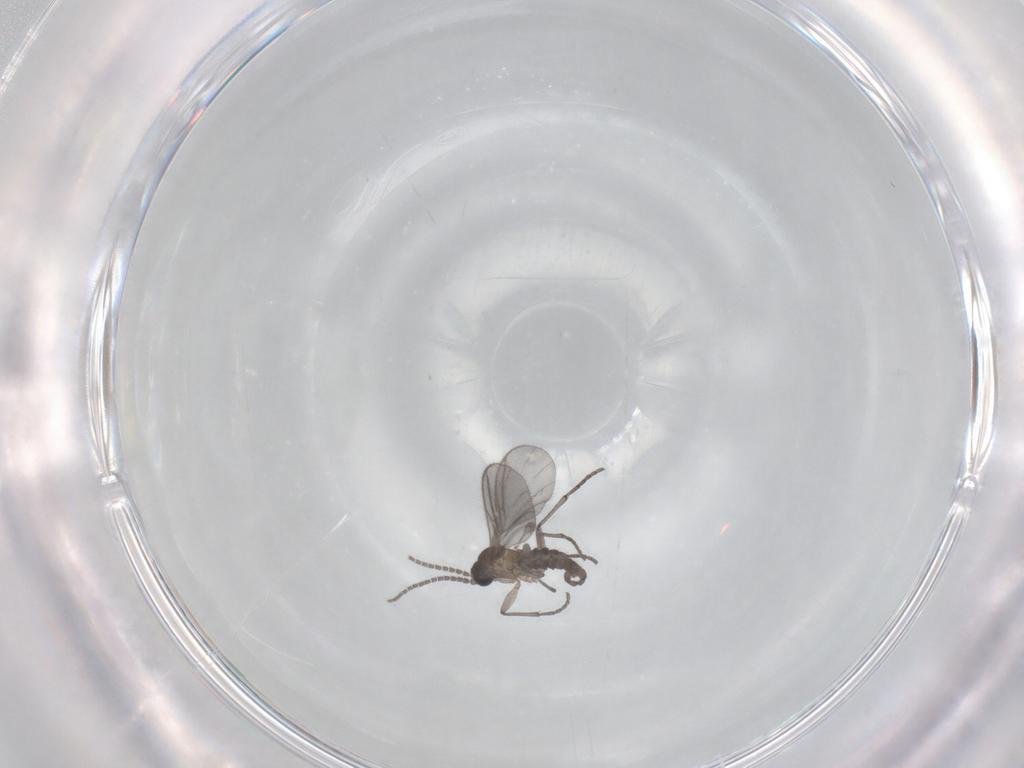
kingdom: Animalia
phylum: Arthropoda
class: Insecta
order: Diptera
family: Sciaridae
